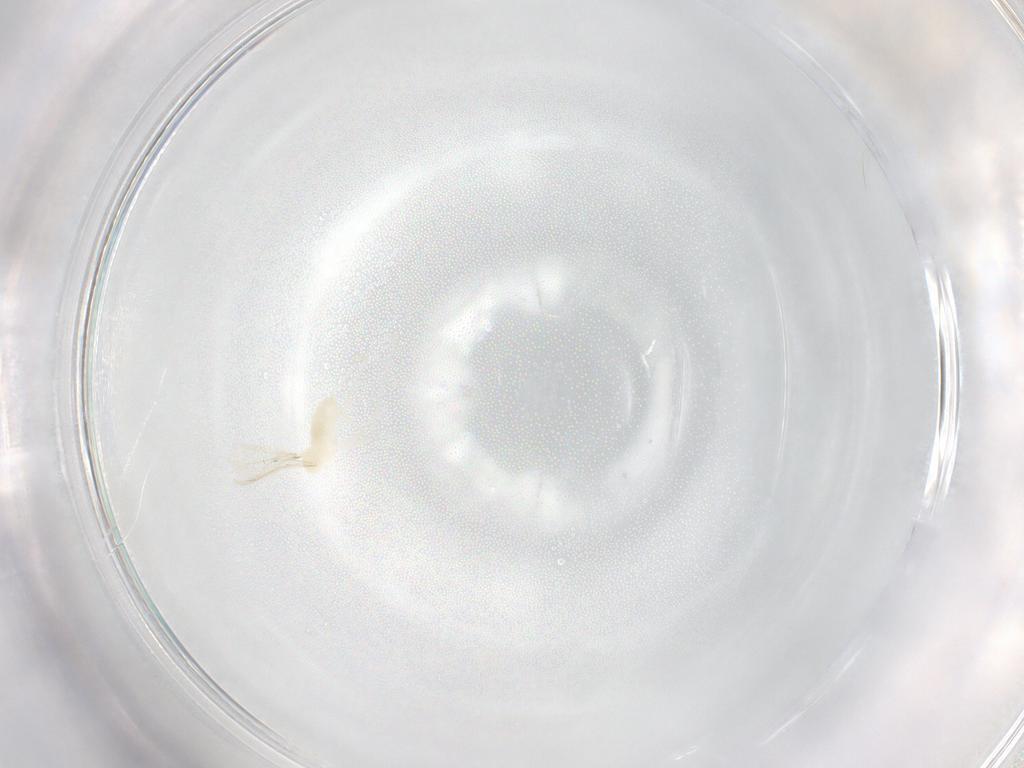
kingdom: Animalia
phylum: Arthropoda
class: Insecta
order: Diptera
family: Cecidomyiidae
